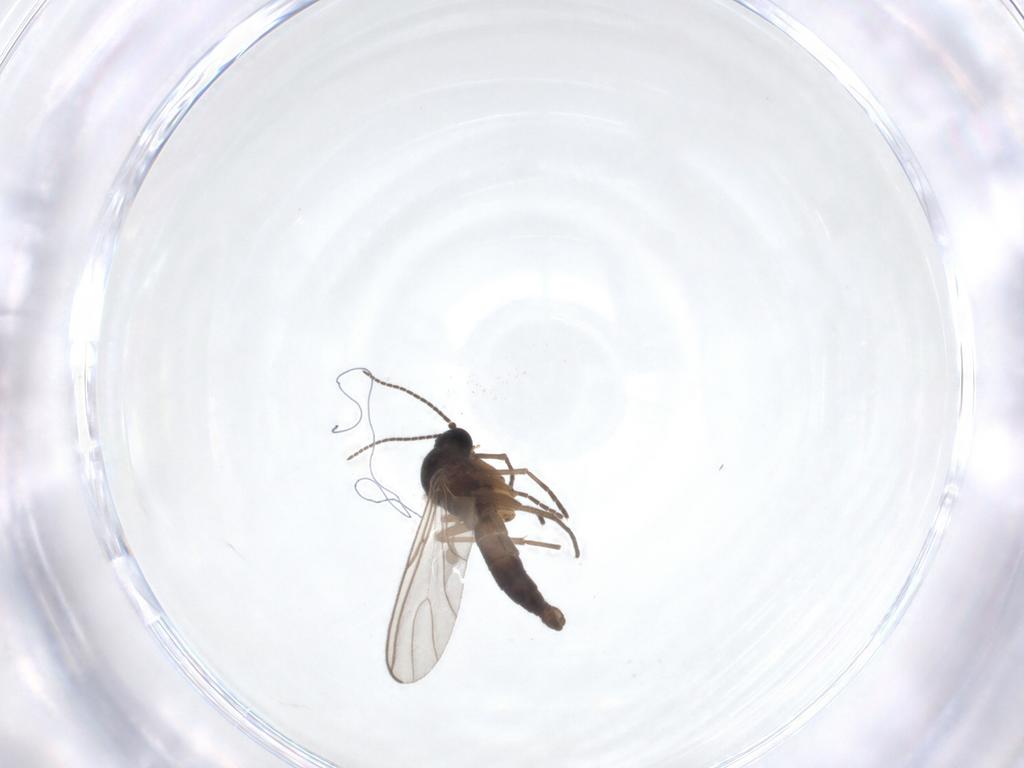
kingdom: Animalia
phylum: Arthropoda
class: Insecta
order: Diptera
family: Sciaridae
